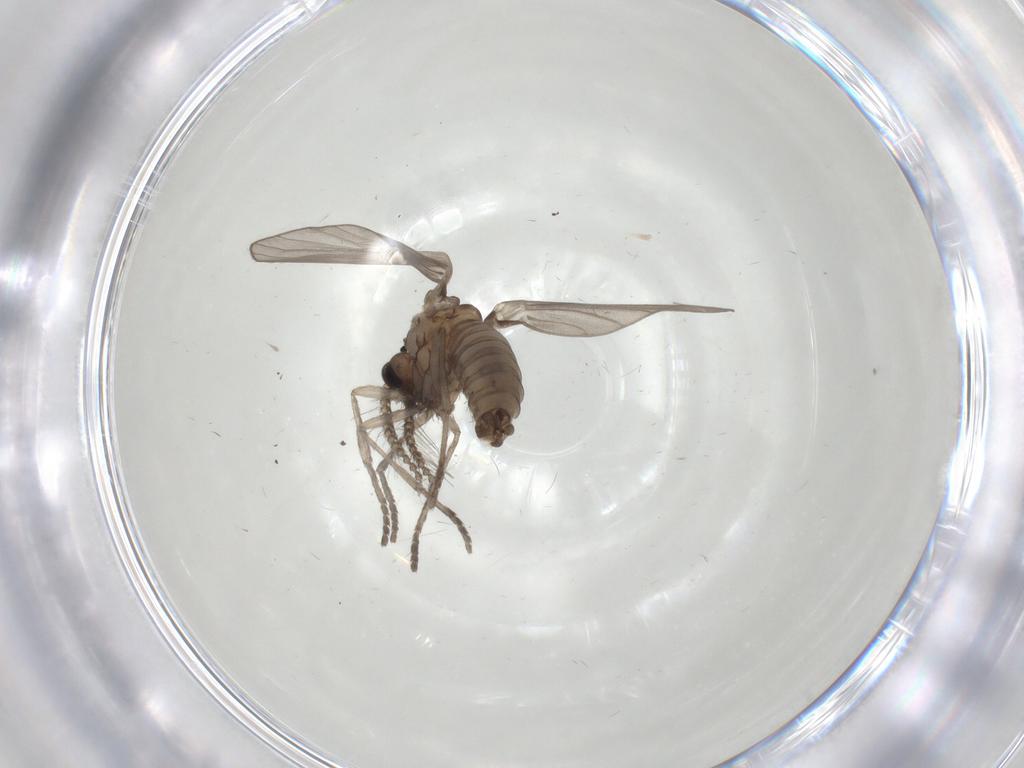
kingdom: Animalia
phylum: Arthropoda
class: Insecta
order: Diptera
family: Psychodidae
